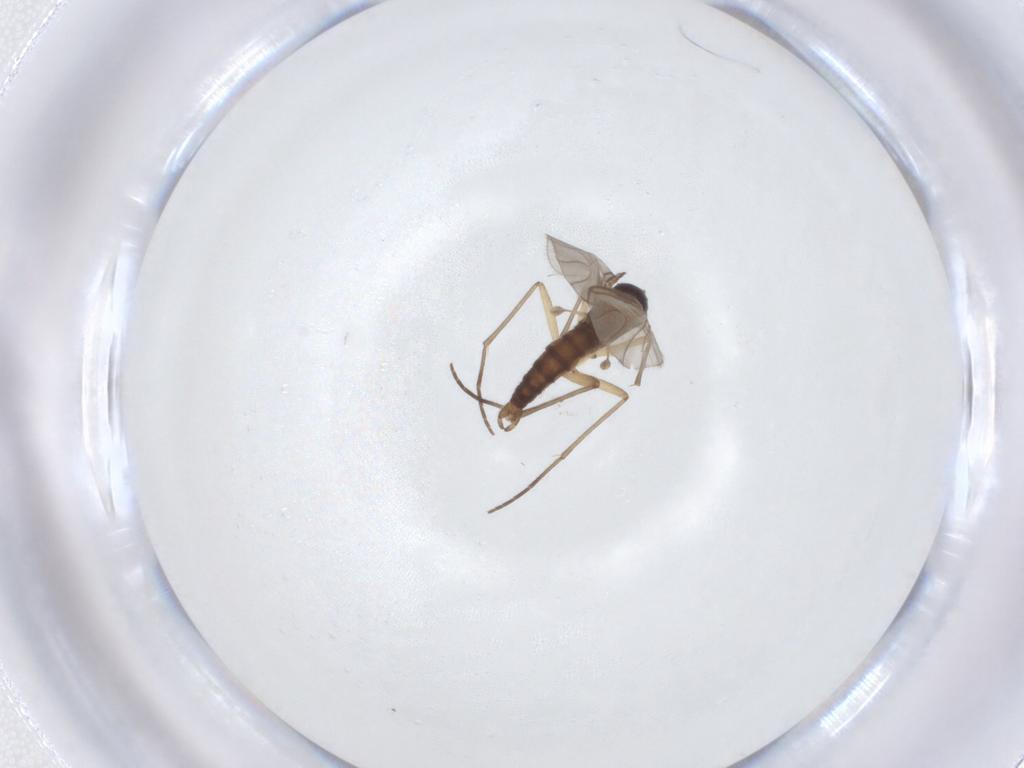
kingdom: Animalia
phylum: Arthropoda
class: Insecta
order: Diptera
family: Sciaridae
